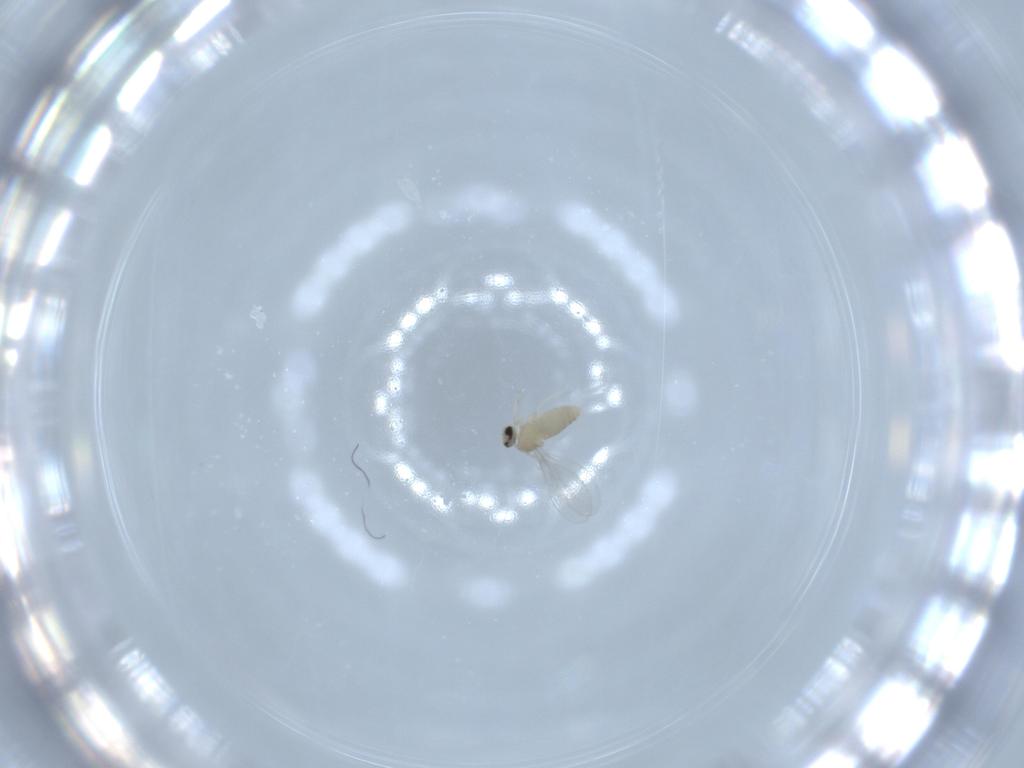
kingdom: Animalia
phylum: Arthropoda
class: Insecta
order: Diptera
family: Cecidomyiidae
